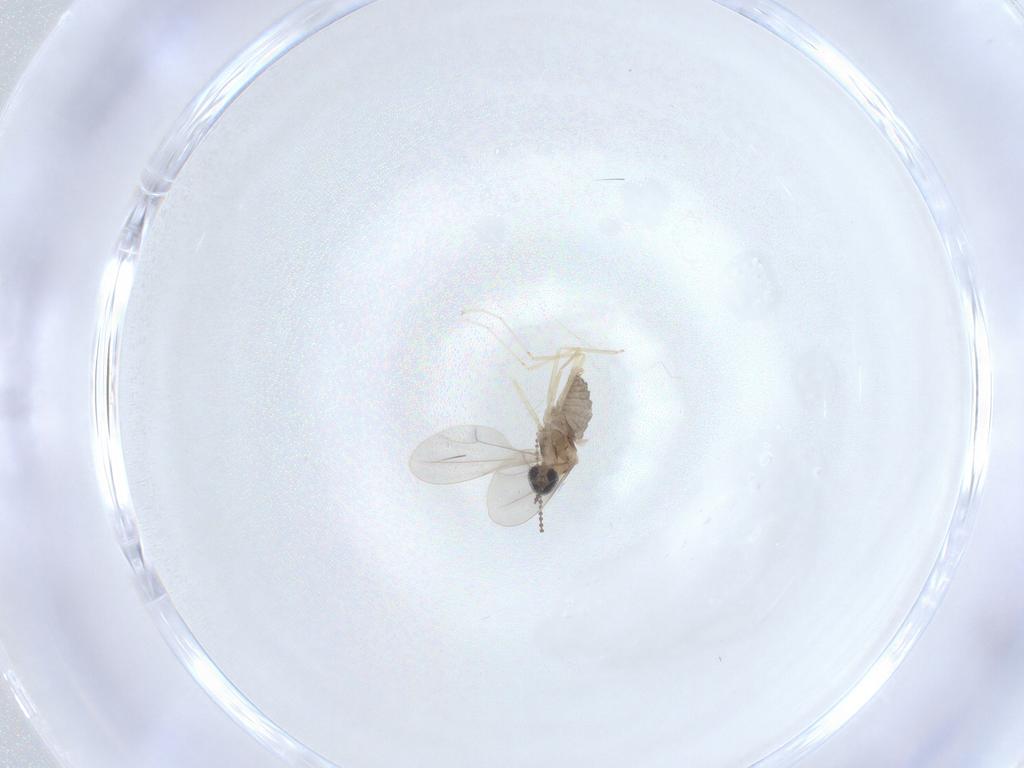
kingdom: Animalia
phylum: Arthropoda
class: Insecta
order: Diptera
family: Cecidomyiidae
